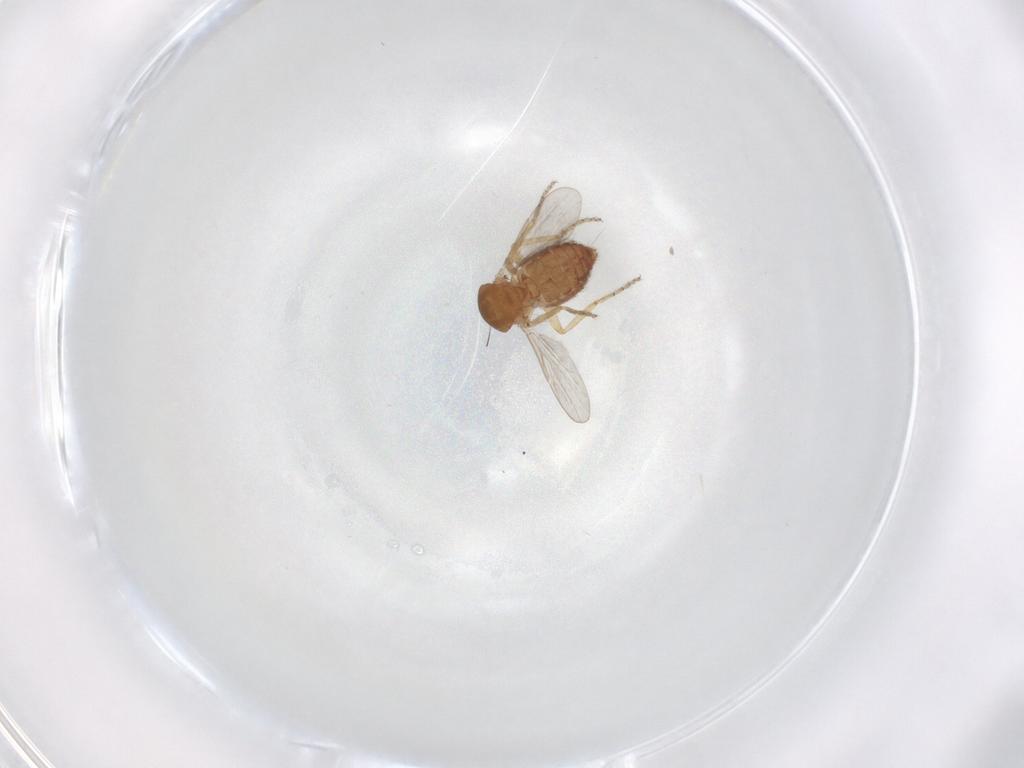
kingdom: Animalia
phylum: Arthropoda
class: Insecta
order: Diptera
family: Ceratopogonidae
